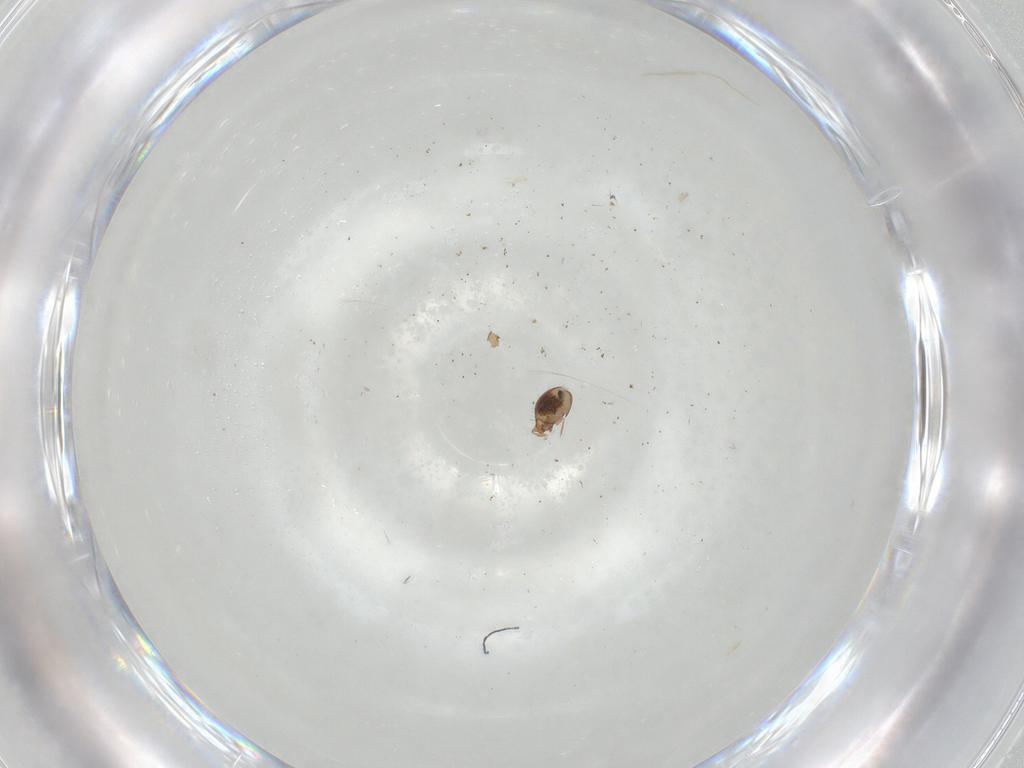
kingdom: Animalia
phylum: Arthropoda
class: Arachnida
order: Sarcoptiformes
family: Oribatulidae
